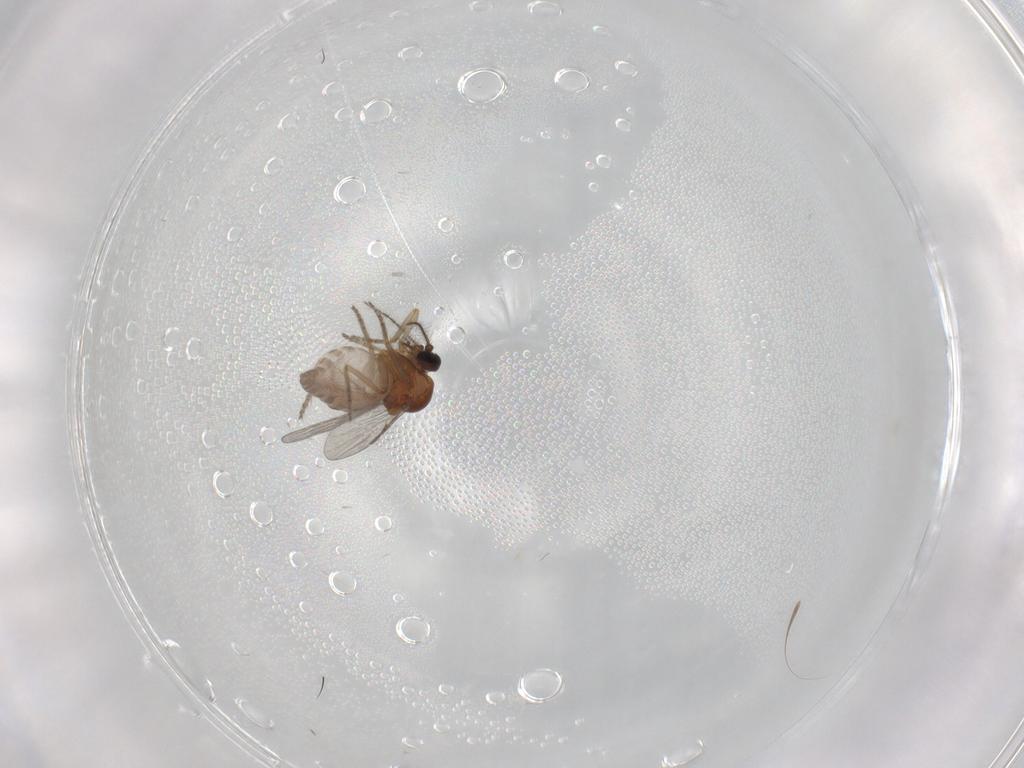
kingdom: Animalia
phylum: Arthropoda
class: Insecta
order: Diptera
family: Ceratopogonidae
